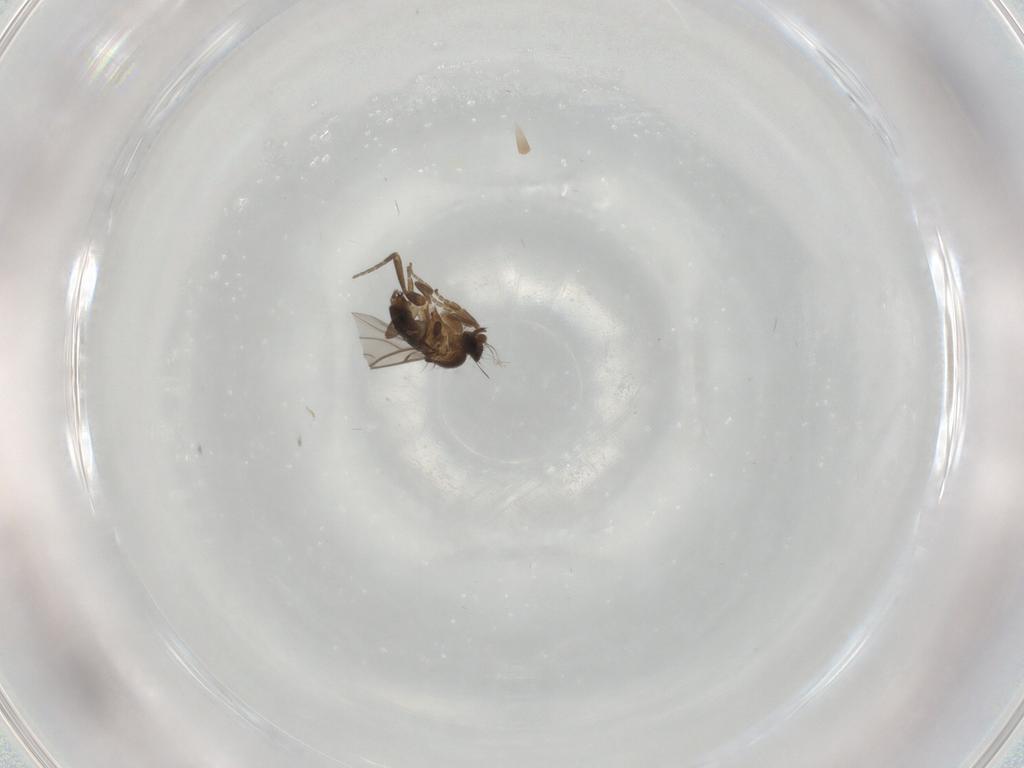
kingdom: Animalia
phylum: Arthropoda
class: Insecta
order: Diptera
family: Phoridae
